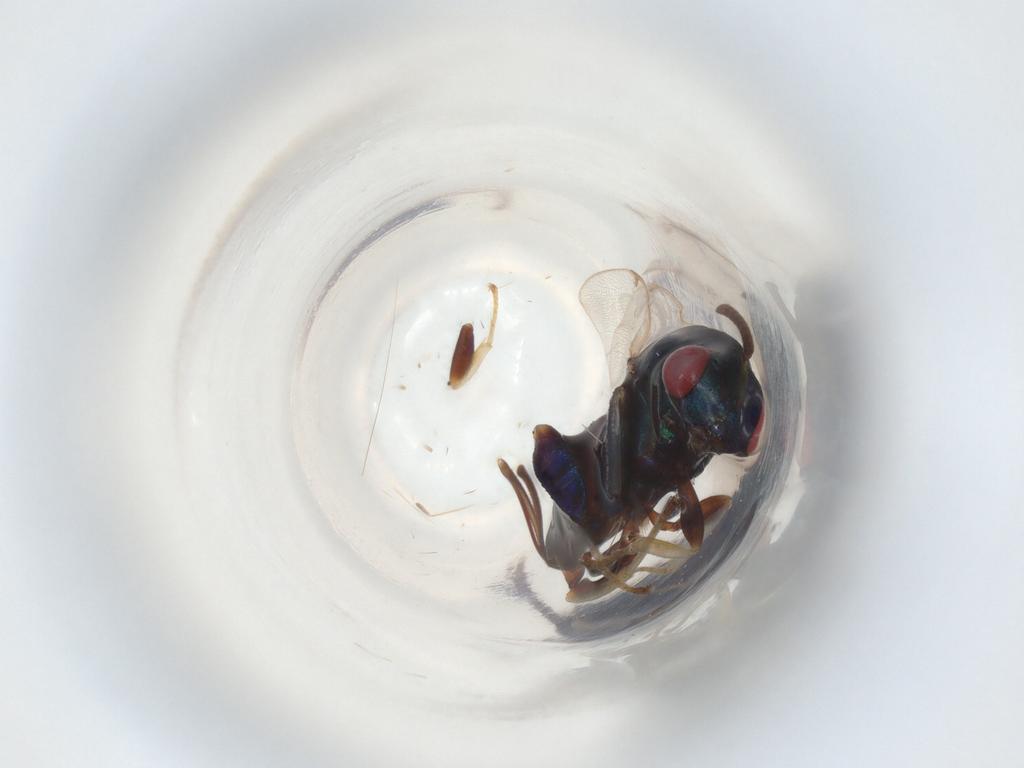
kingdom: Animalia
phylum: Arthropoda
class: Insecta
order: Diptera
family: Muscidae
